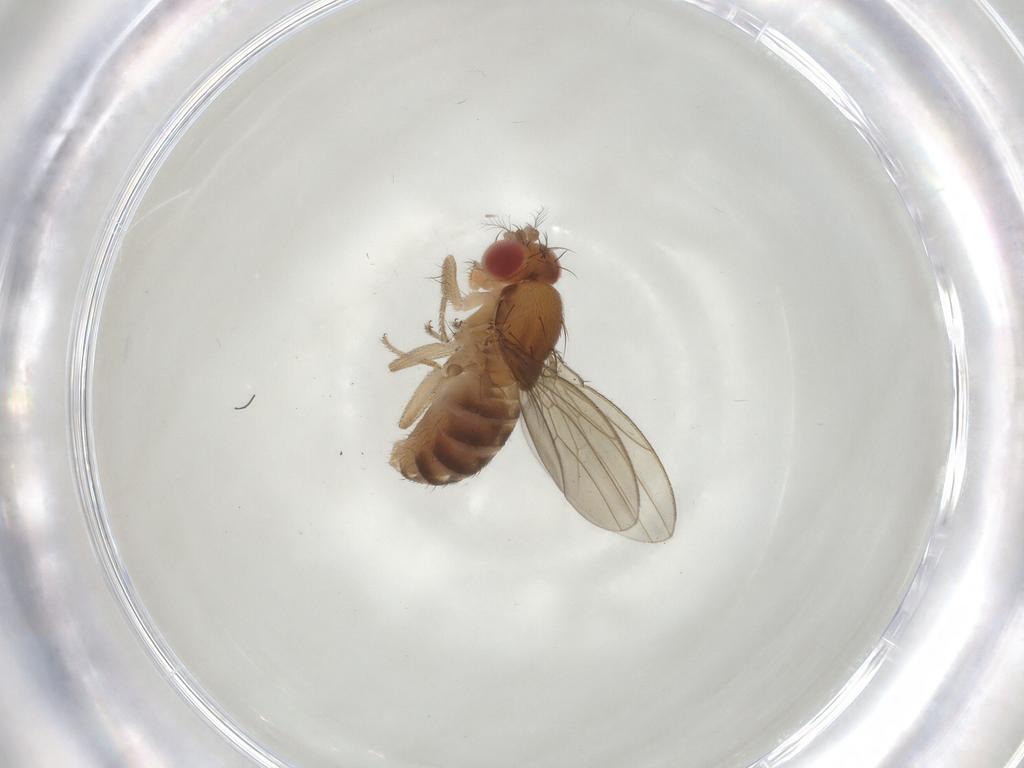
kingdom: Animalia
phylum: Arthropoda
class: Insecta
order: Diptera
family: Drosophilidae
